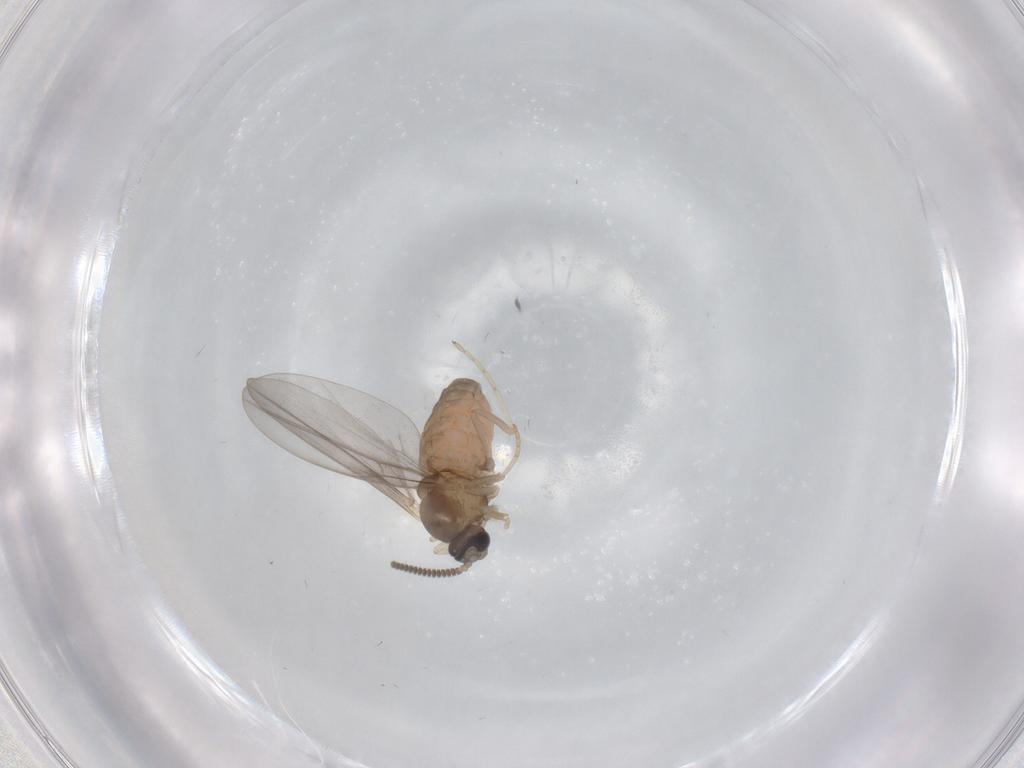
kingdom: Animalia
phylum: Arthropoda
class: Insecta
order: Diptera
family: Cecidomyiidae
